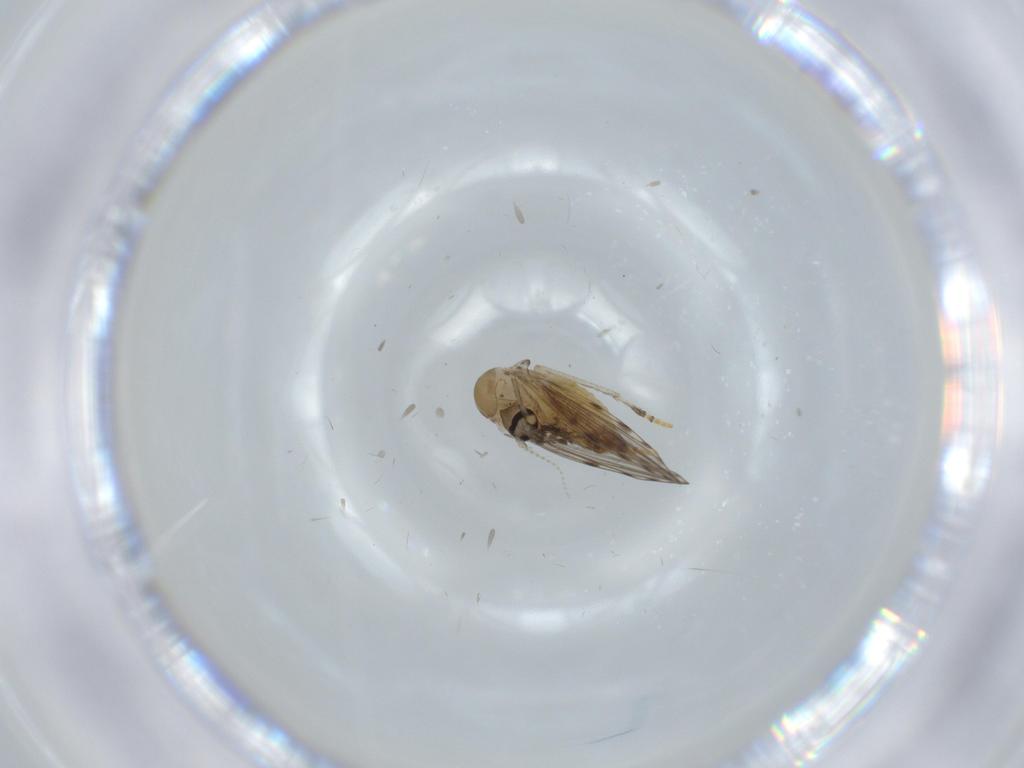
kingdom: Animalia
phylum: Arthropoda
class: Insecta
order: Diptera
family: Psychodidae
